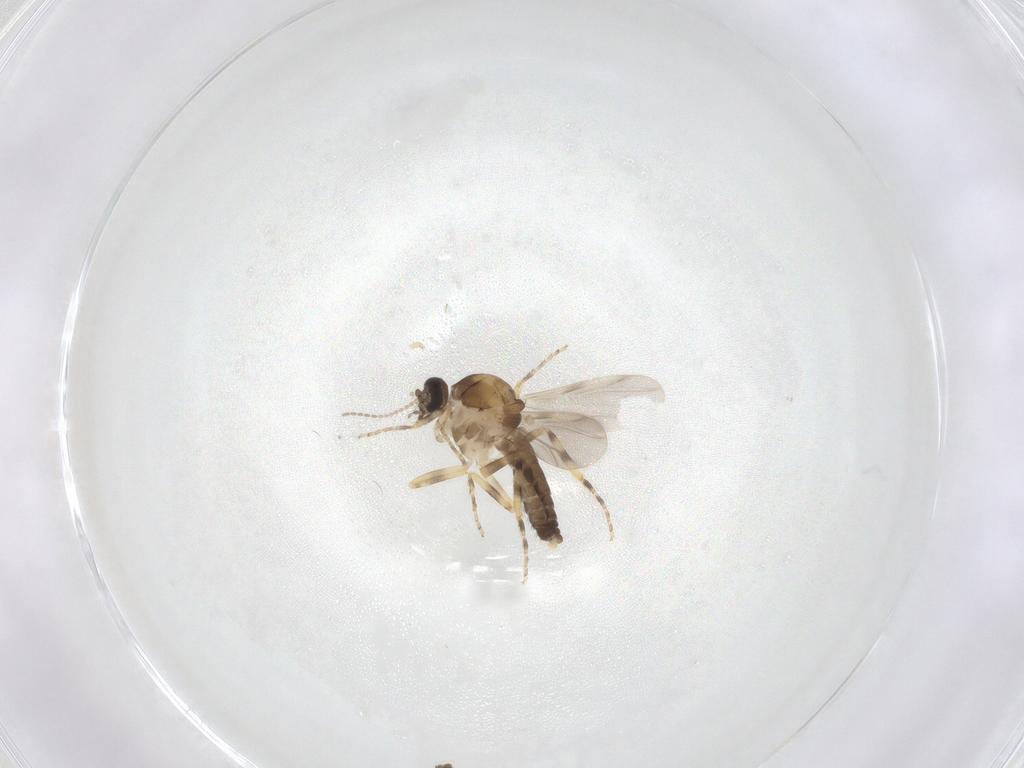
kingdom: Animalia
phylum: Arthropoda
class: Insecta
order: Diptera
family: Ceratopogonidae
